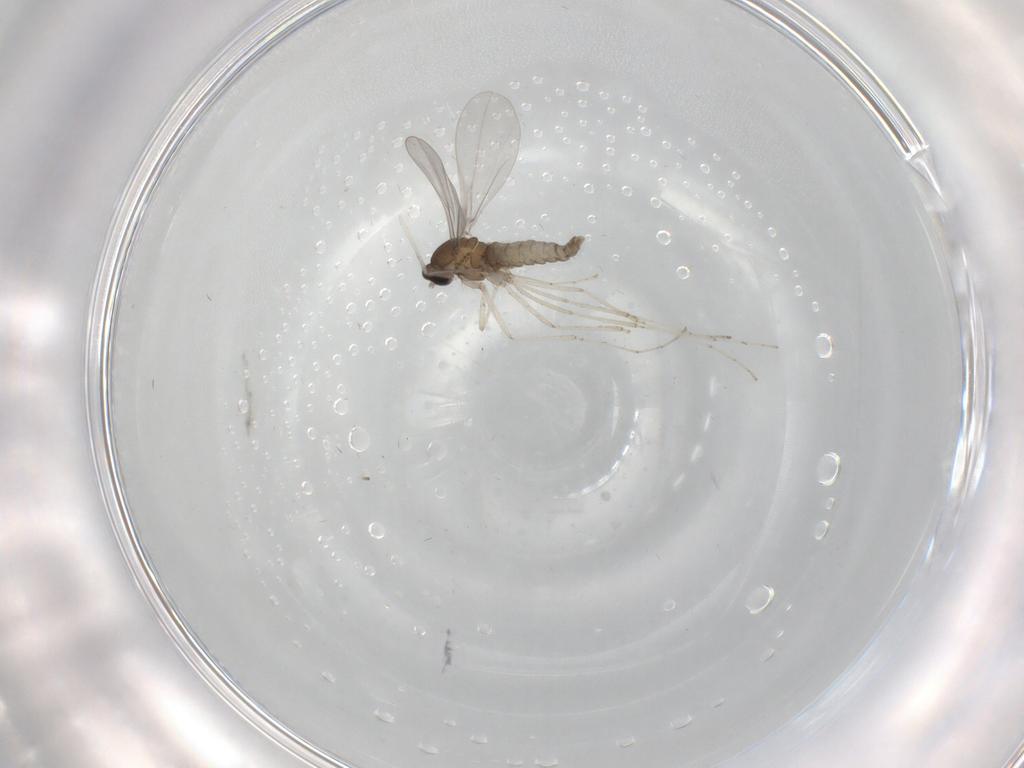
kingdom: Animalia
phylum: Arthropoda
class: Insecta
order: Diptera
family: Cecidomyiidae
